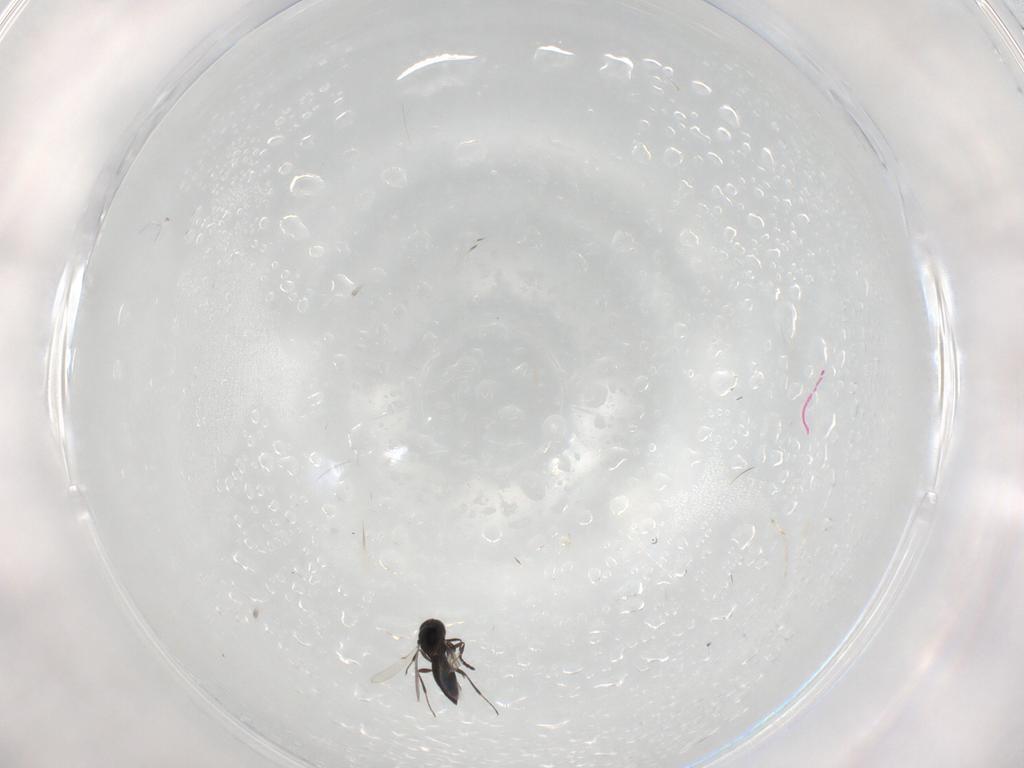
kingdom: Animalia
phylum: Arthropoda
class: Insecta
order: Hymenoptera
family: Scelionidae
